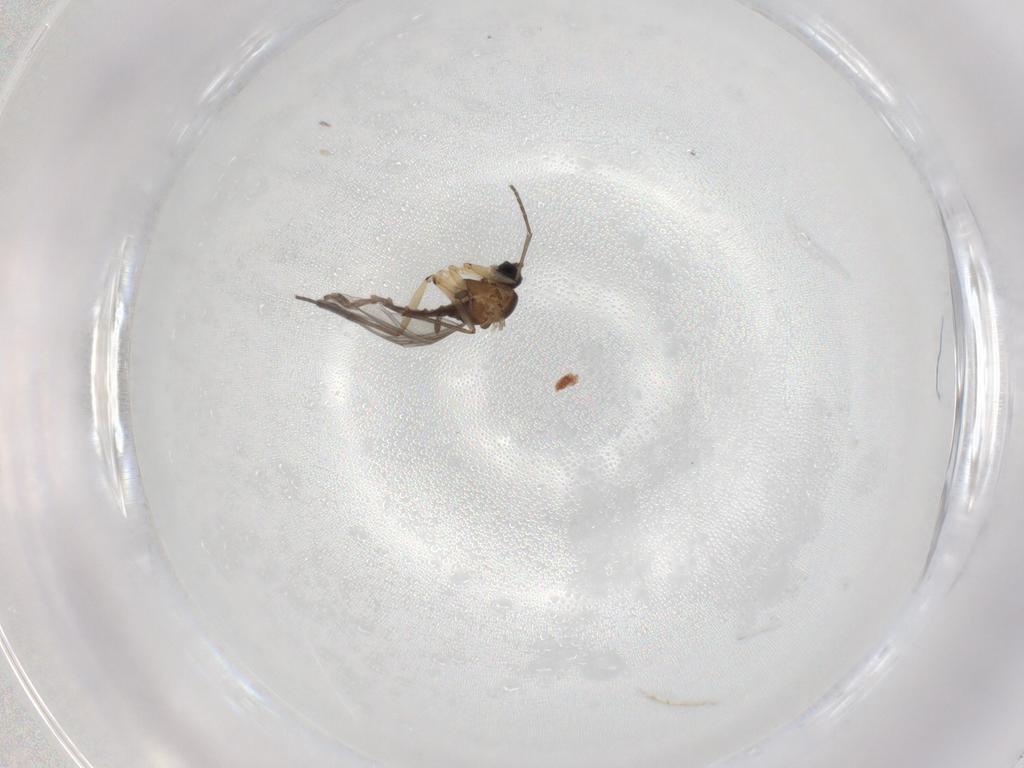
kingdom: Animalia
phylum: Arthropoda
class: Insecta
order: Diptera
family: Sciaridae
